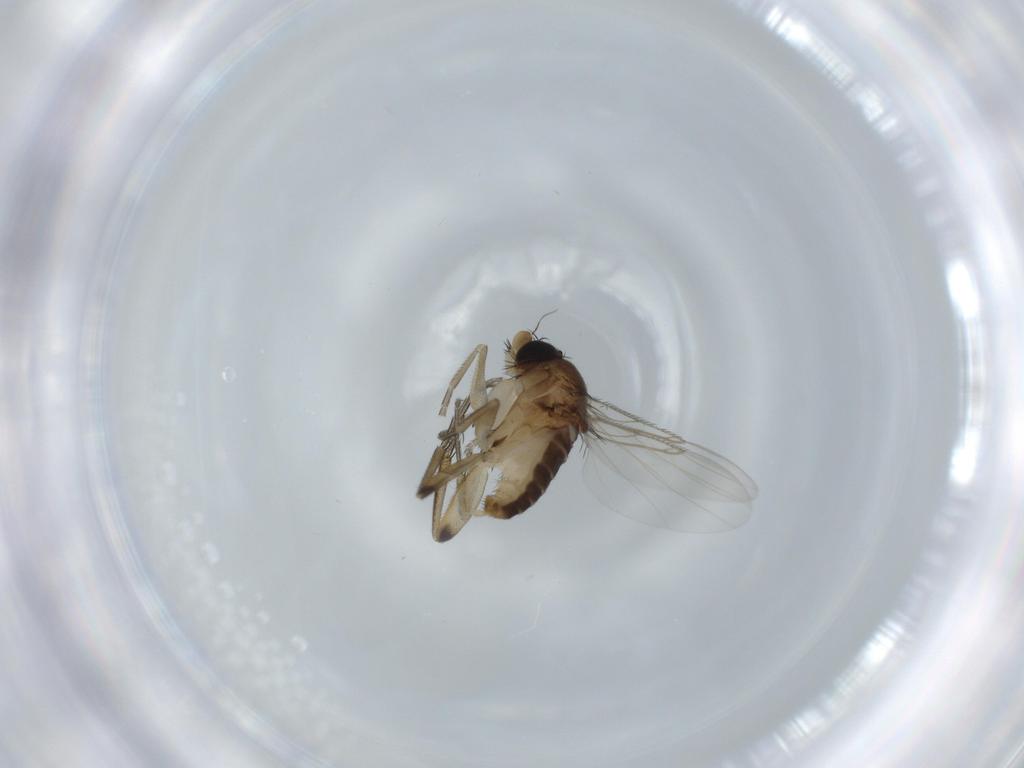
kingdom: Animalia
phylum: Arthropoda
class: Insecta
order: Diptera
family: Phoridae
